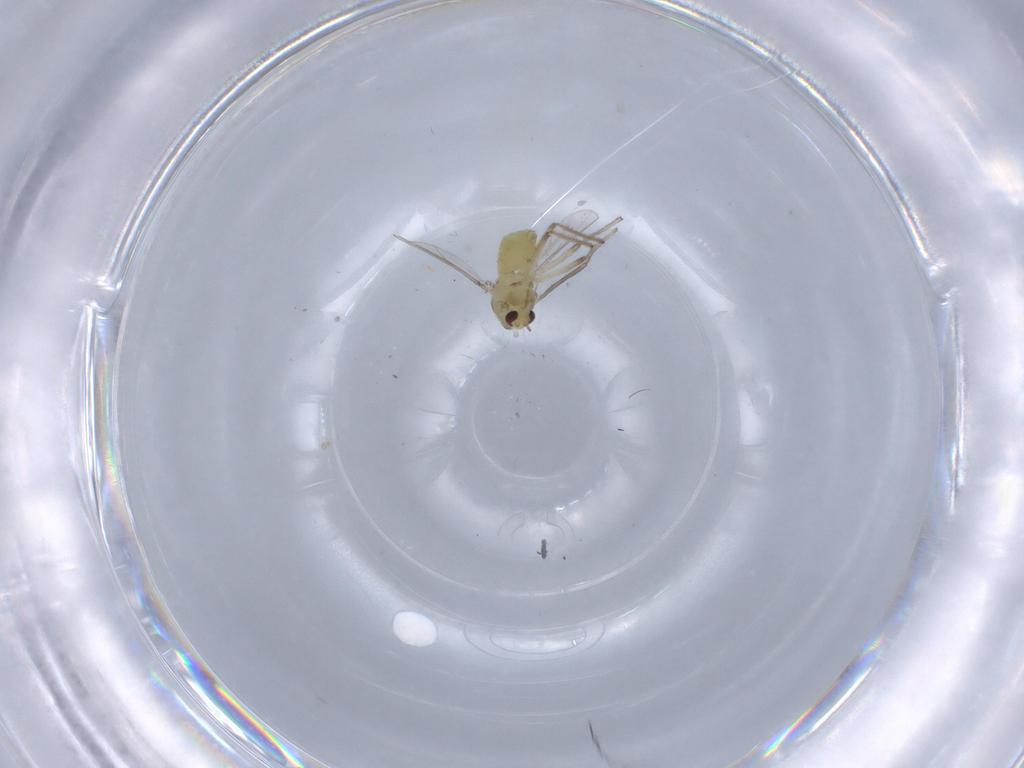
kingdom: Animalia
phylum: Arthropoda
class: Insecta
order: Diptera
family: Chironomidae
